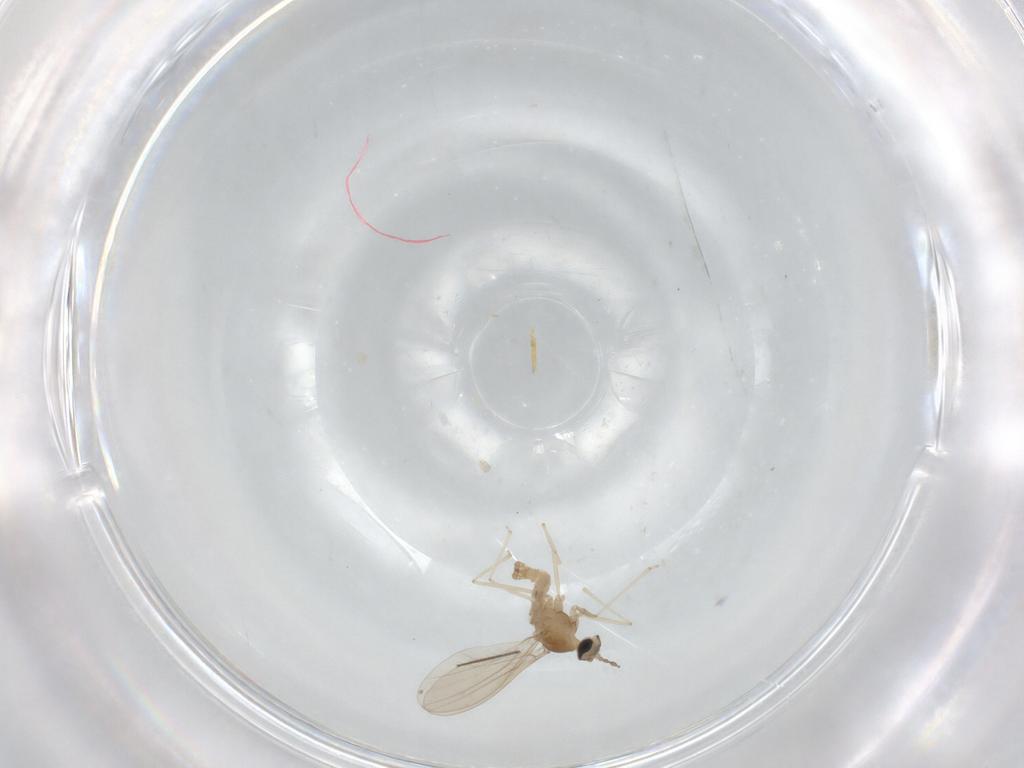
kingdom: Animalia
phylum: Arthropoda
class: Insecta
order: Diptera
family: Cecidomyiidae
